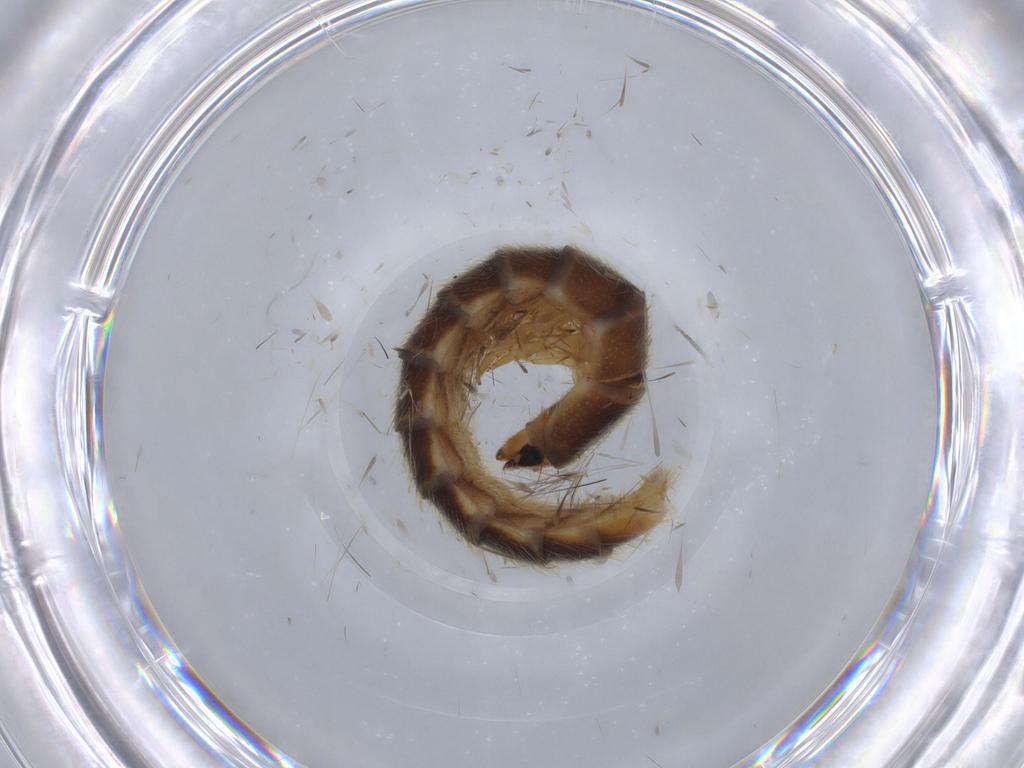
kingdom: Animalia
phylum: Arthropoda
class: Insecta
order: Coleoptera
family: Ptilodactylidae
